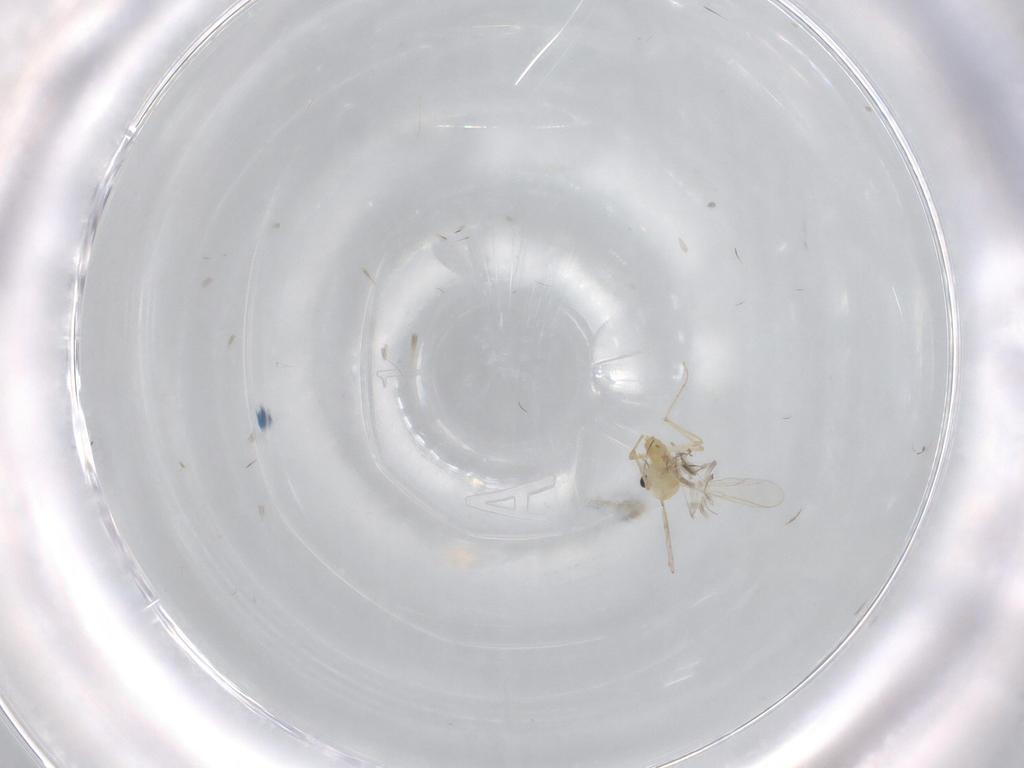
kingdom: Animalia
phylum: Arthropoda
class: Insecta
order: Diptera
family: Chironomidae
